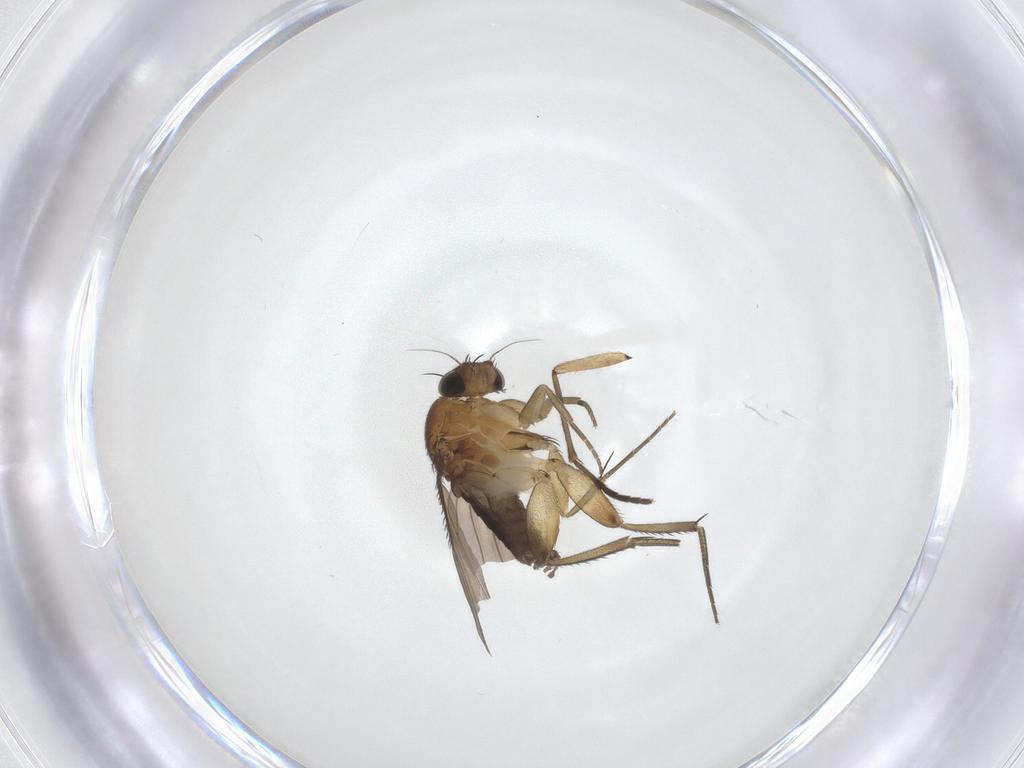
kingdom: Animalia
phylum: Arthropoda
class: Insecta
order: Diptera
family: Phoridae
